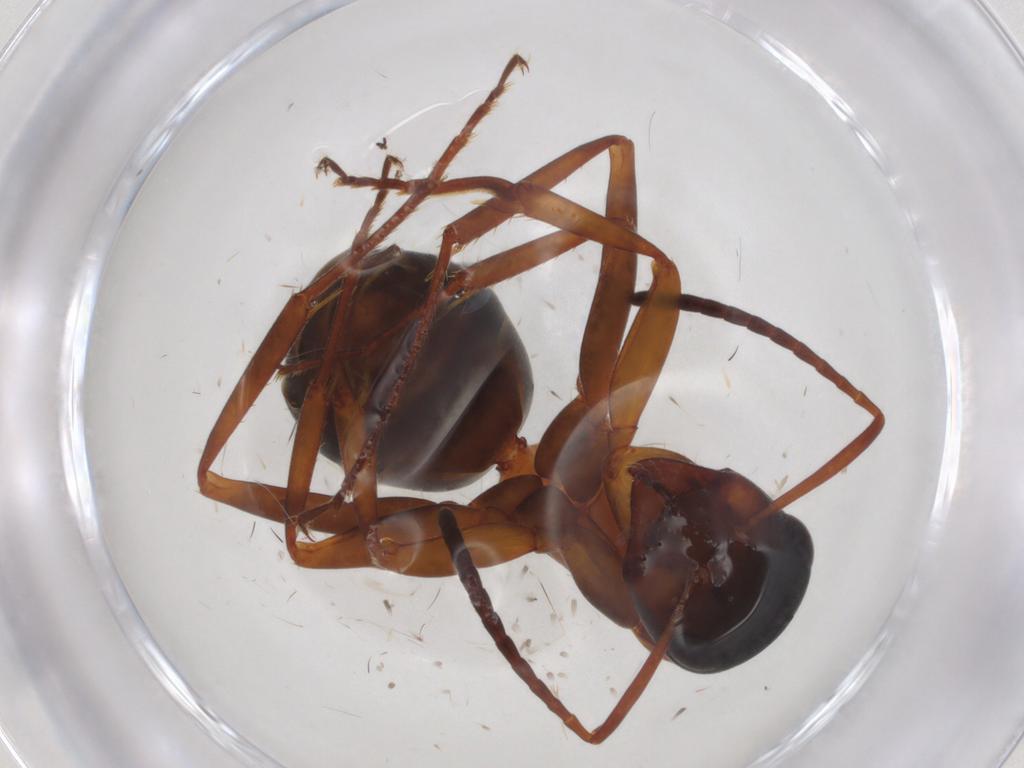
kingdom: Animalia
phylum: Arthropoda
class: Insecta
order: Hymenoptera
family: Formicidae
